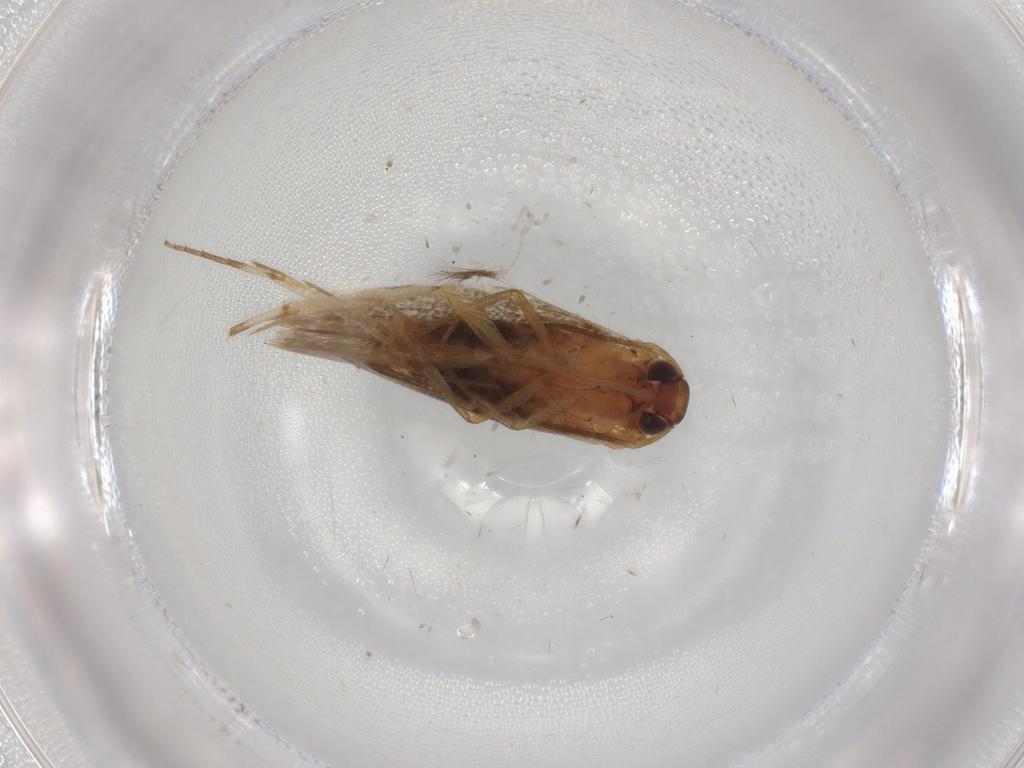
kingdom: Animalia
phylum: Arthropoda
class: Insecta
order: Lepidoptera
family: Cosmopterigidae
